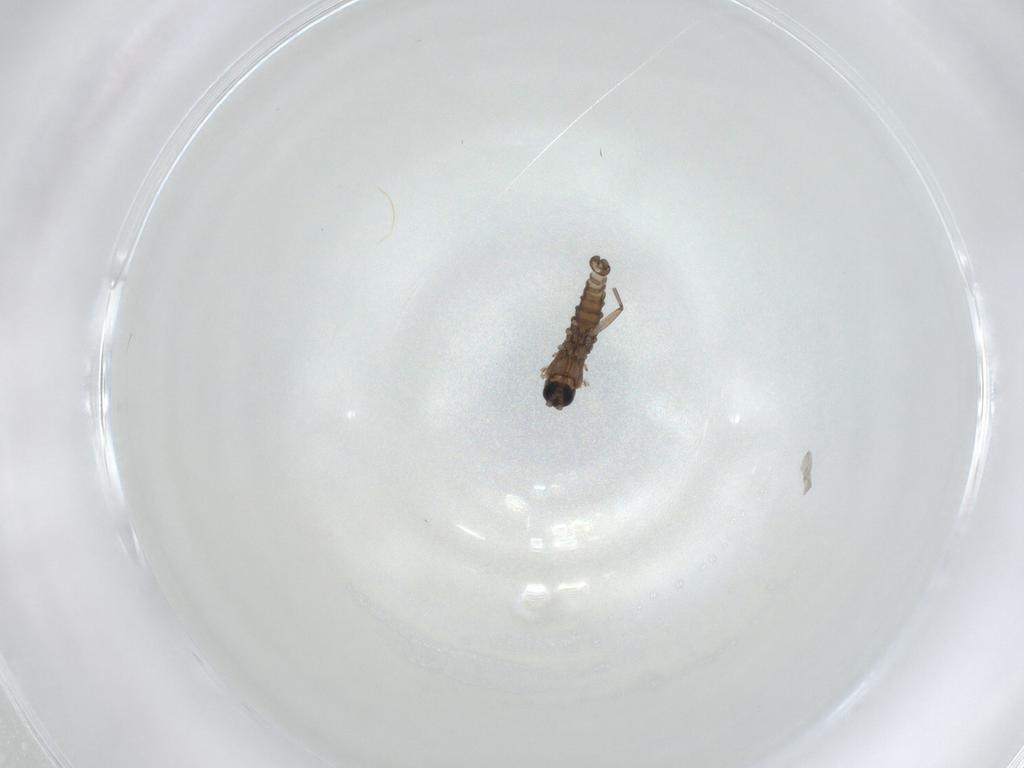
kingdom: Animalia
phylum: Arthropoda
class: Insecta
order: Diptera
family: Sciaridae
